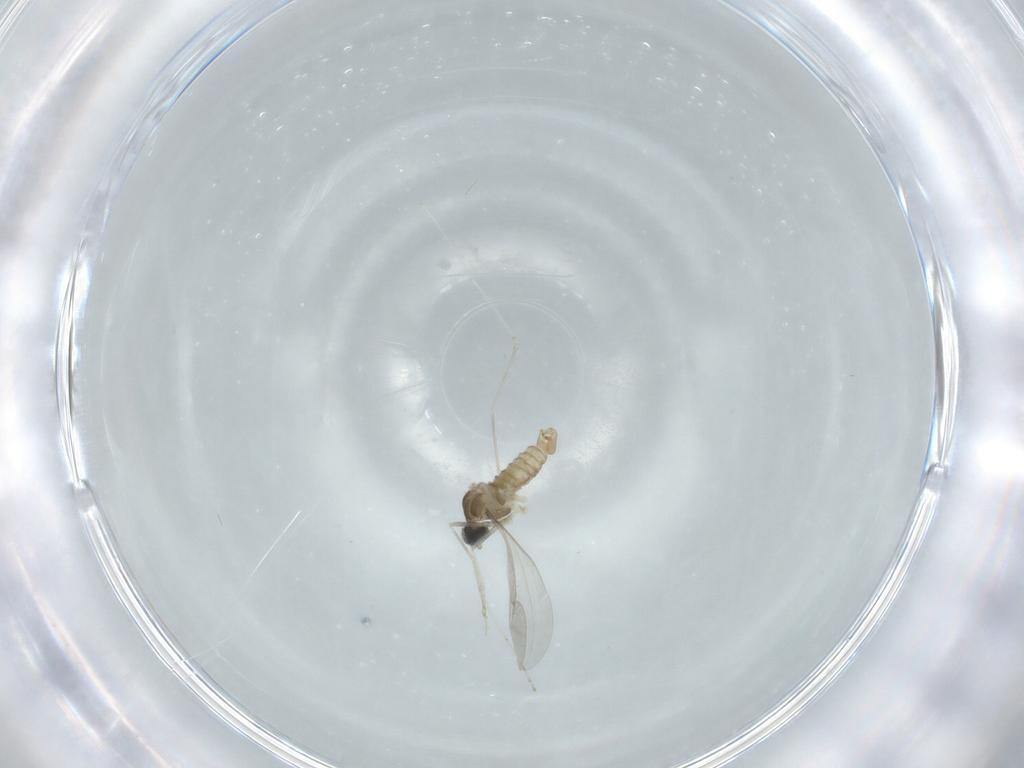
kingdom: Animalia
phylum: Arthropoda
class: Insecta
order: Diptera
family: Cecidomyiidae
